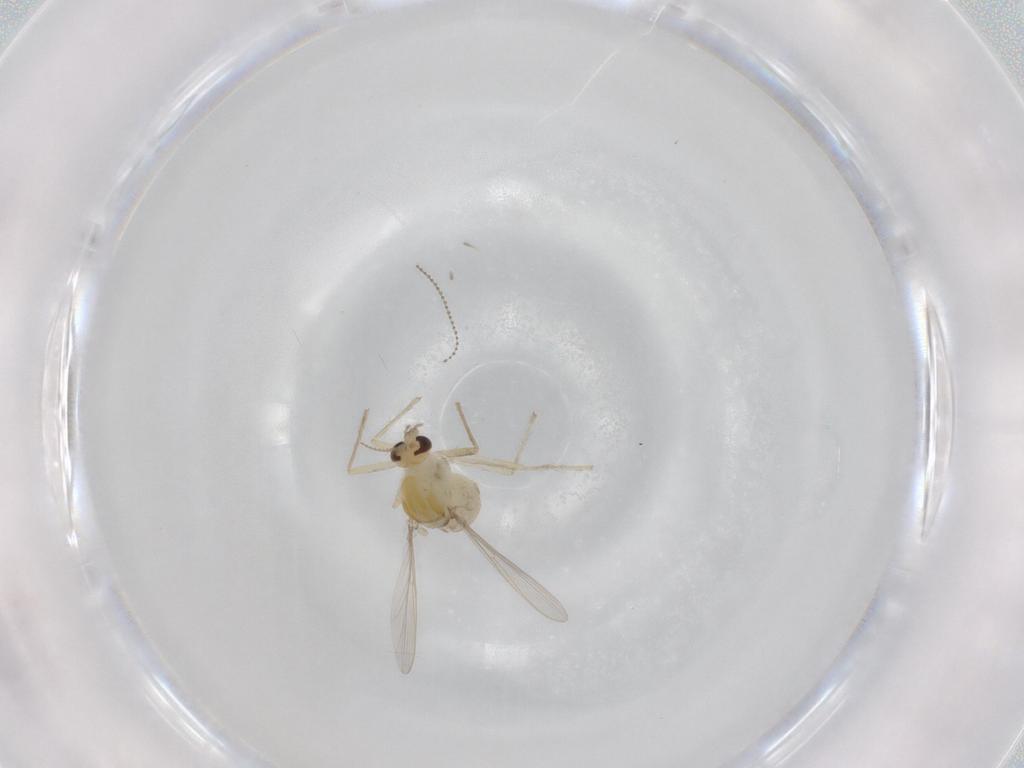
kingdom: Animalia
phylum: Arthropoda
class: Insecta
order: Diptera
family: Chironomidae
